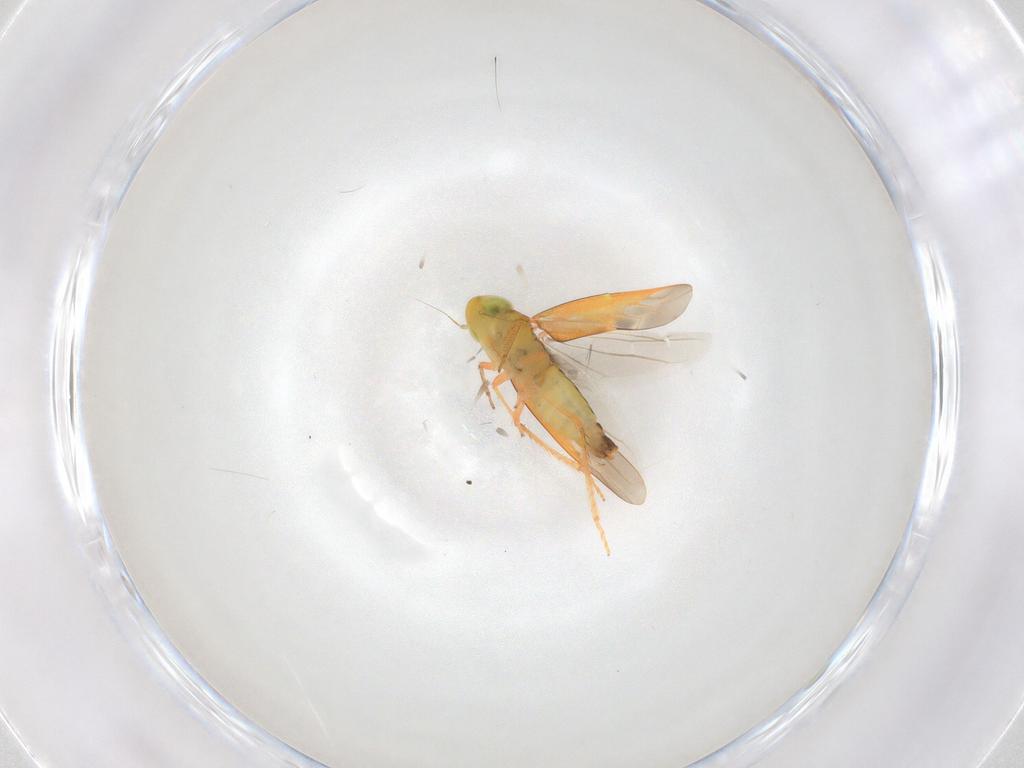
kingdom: Animalia
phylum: Arthropoda
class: Insecta
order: Hemiptera
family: Cicadellidae
